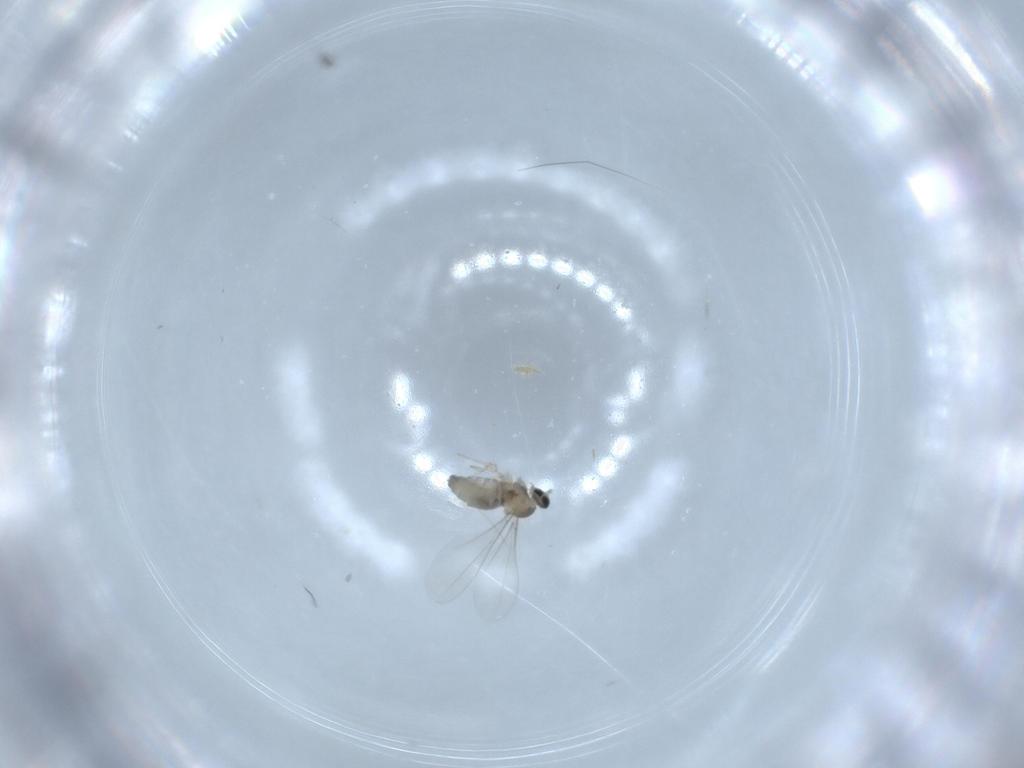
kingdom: Animalia
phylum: Arthropoda
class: Insecta
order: Diptera
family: Cecidomyiidae
